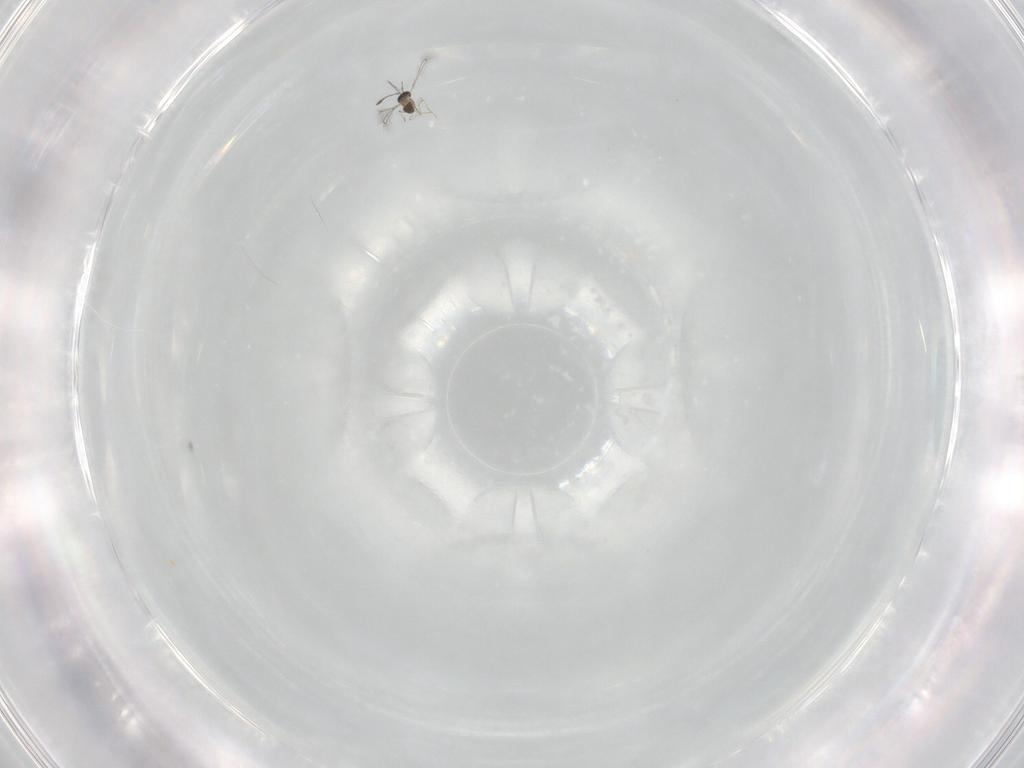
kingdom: Animalia
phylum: Arthropoda
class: Insecta
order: Hymenoptera
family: Mymaridae
